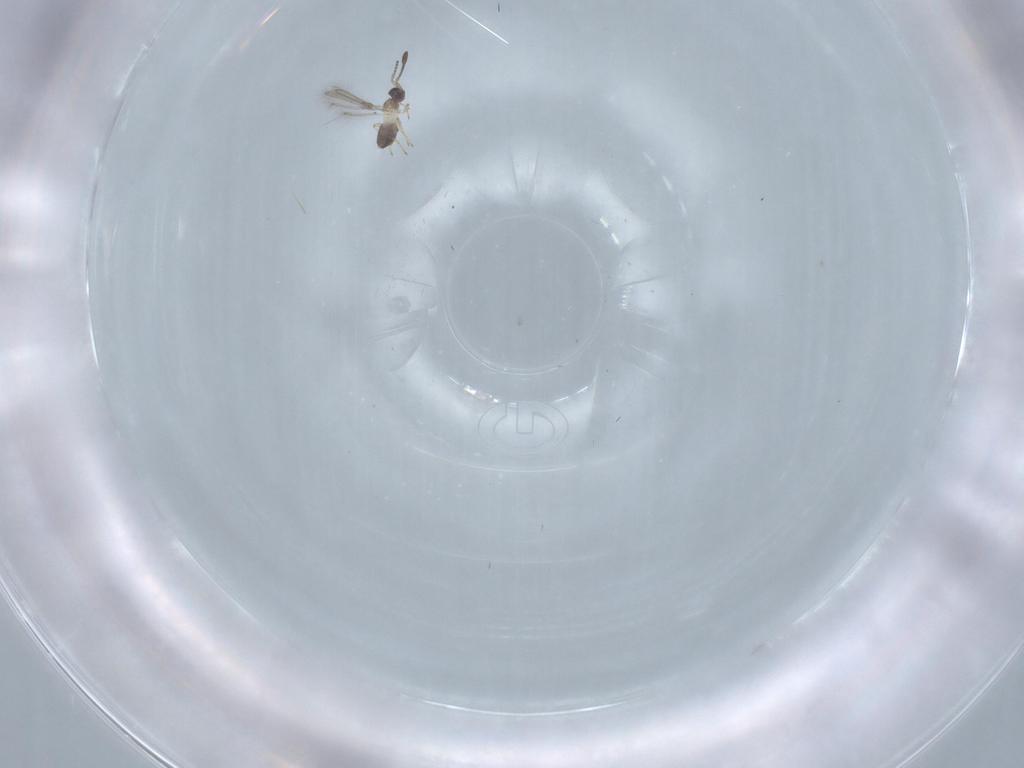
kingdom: Animalia
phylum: Arthropoda
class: Insecta
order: Hymenoptera
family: Mymaridae
